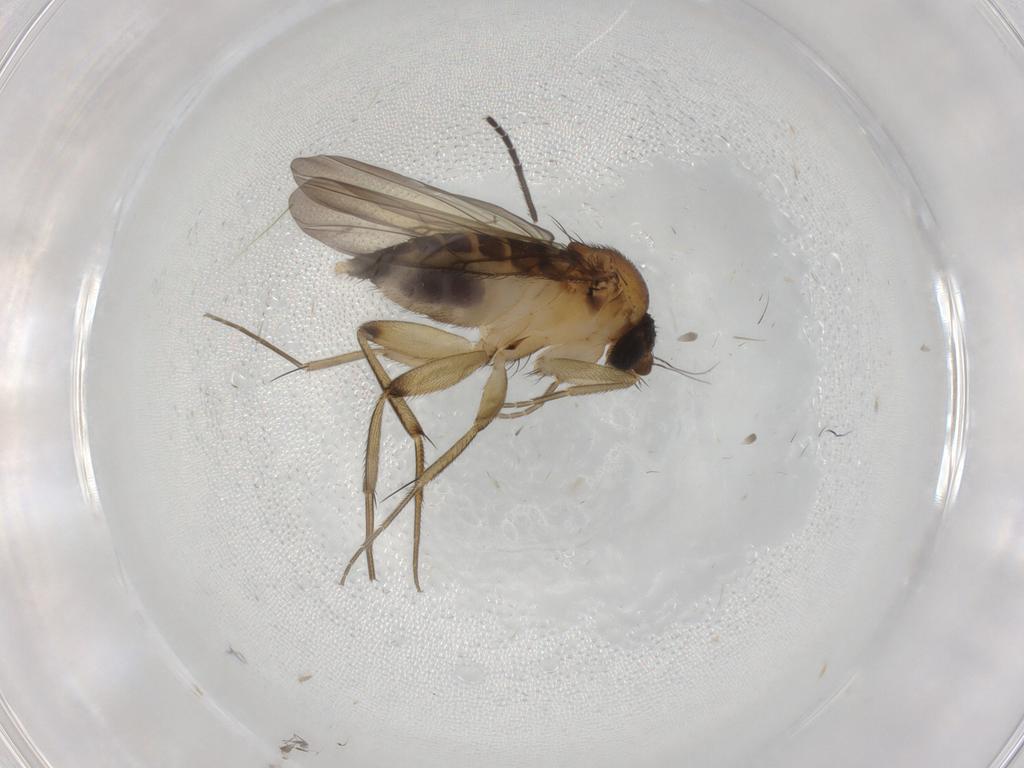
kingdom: Animalia
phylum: Arthropoda
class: Insecta
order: Diptera
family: Phoridae
